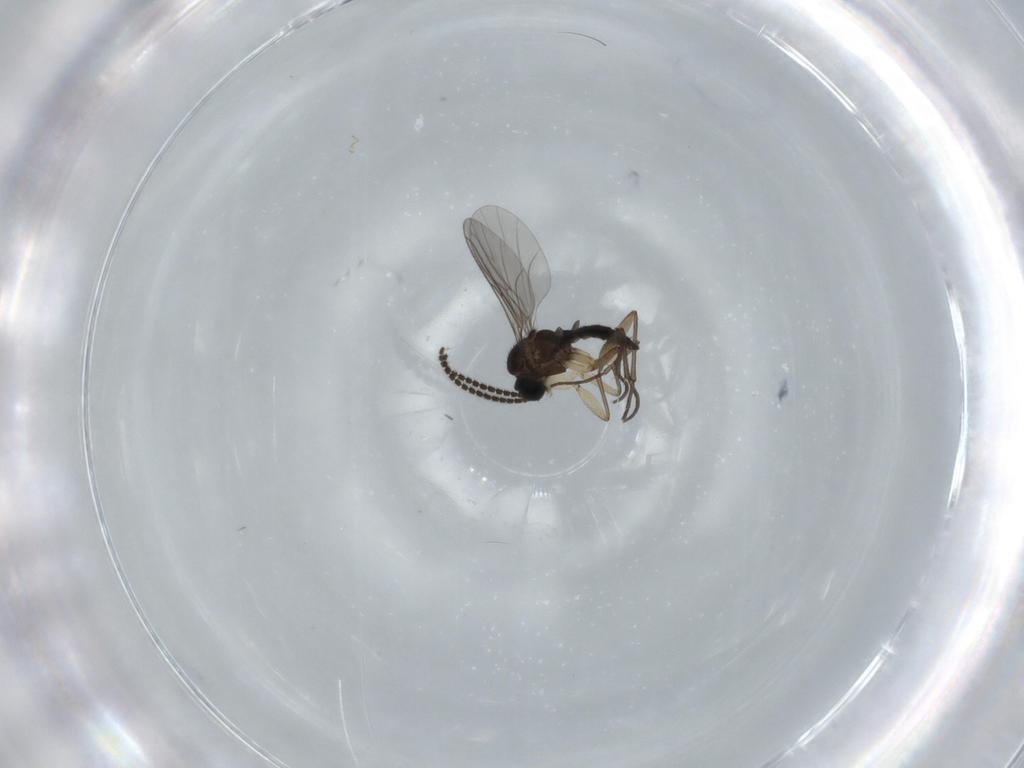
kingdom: Animalia
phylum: Arthropoda
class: Insecta
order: Diptera
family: Sciaridae
